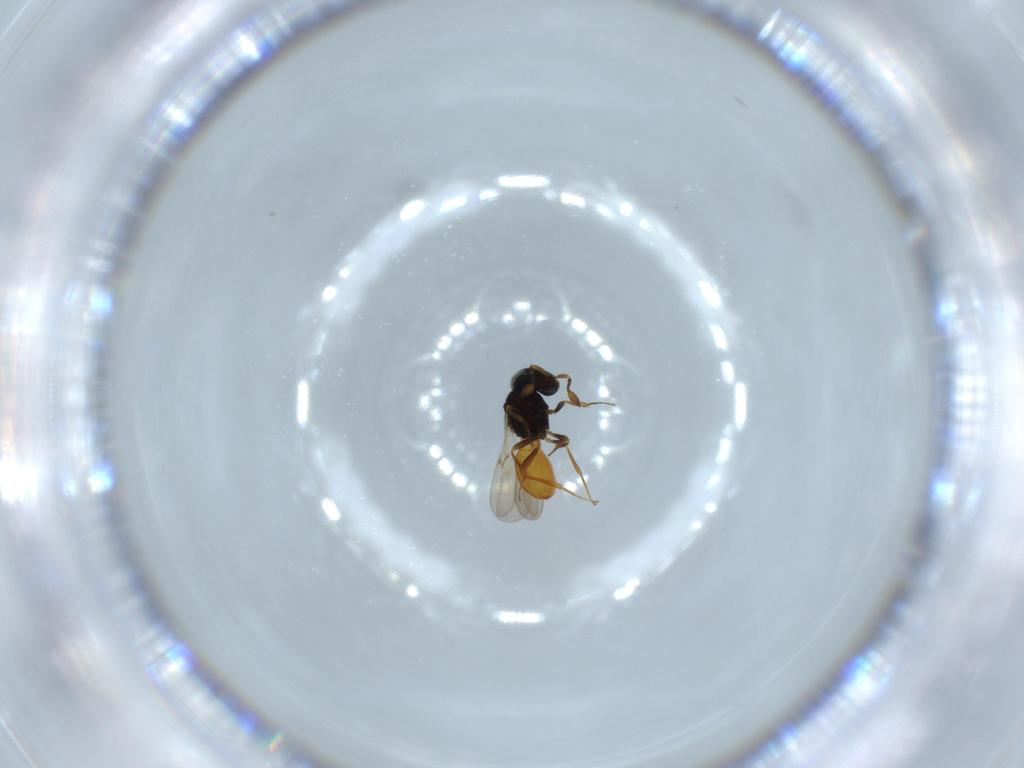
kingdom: Animalia
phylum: Arthropoda
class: Insecta
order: Hymenoptera
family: Scelionidae
